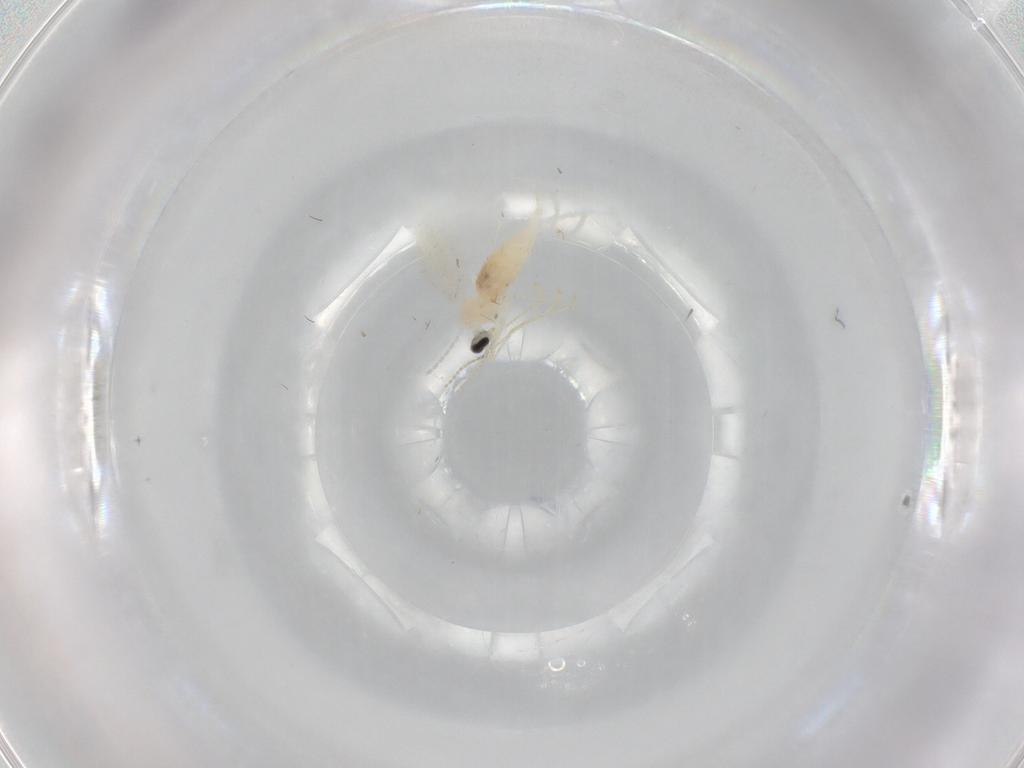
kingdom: Animalia
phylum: Arthropoda
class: Insecta
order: Diptera
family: Cecidomyiidae
